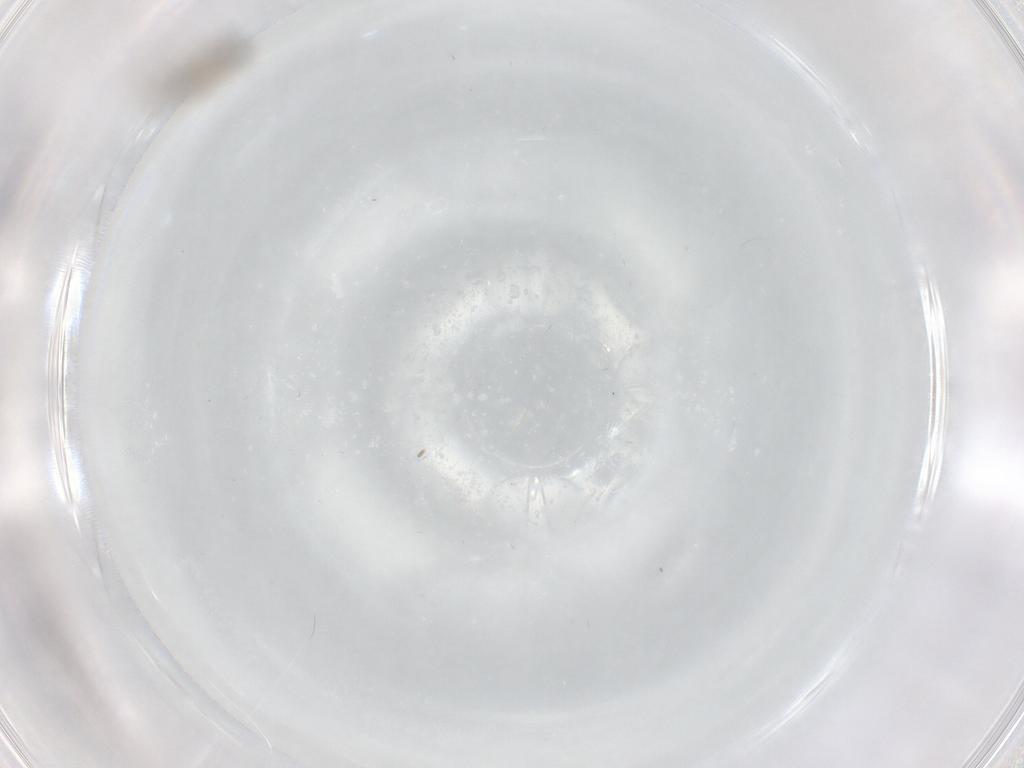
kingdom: Animalia
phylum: Arthropoda
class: Insecta
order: Diptera
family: Cecidomyiidae
